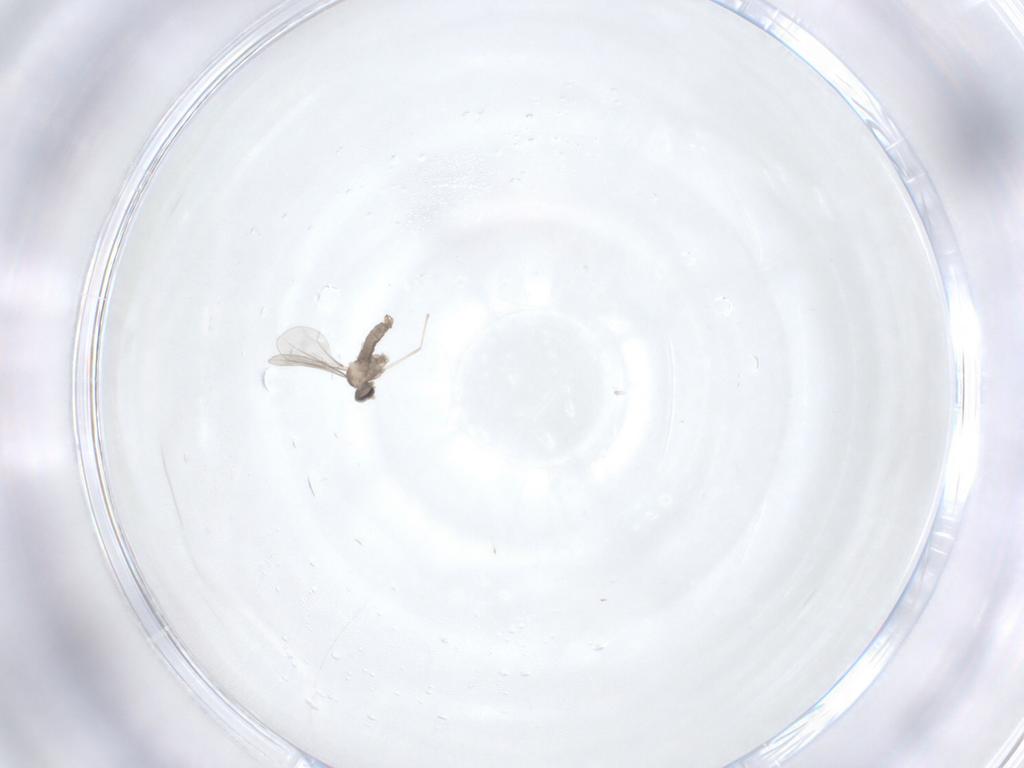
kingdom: Animalia
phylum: Arthropoda
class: Insecta
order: Diptera
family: Cecidomyiidae
